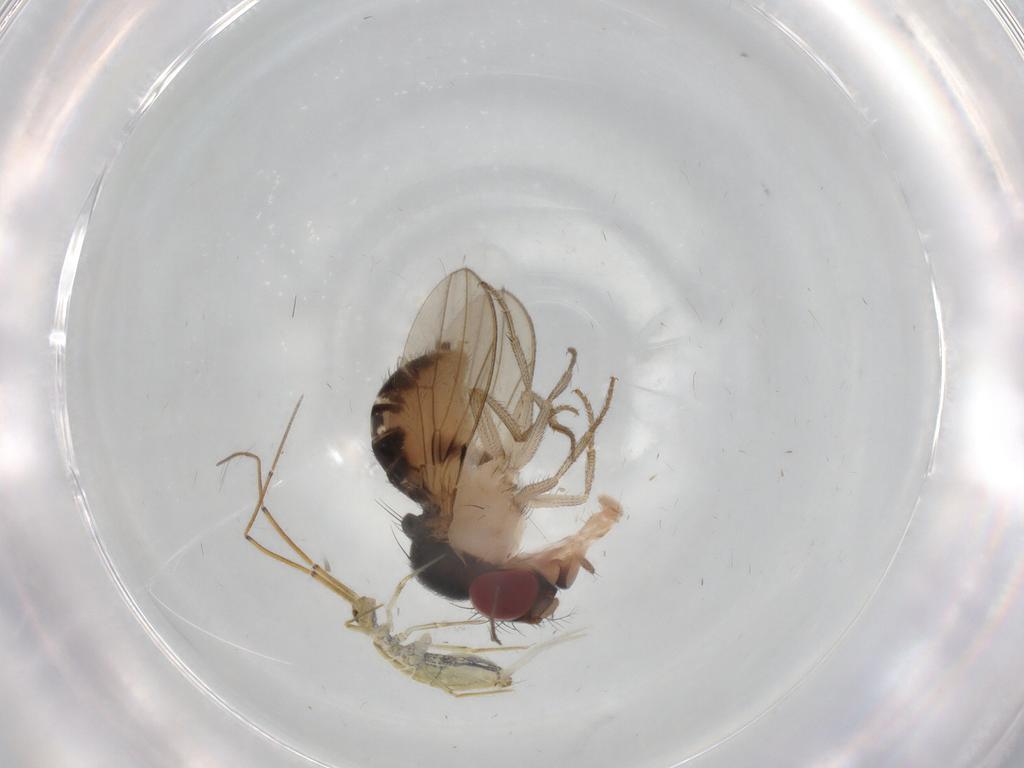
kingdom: Animalia
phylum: Arthropoda
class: Insecta
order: Diptera
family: Drosophilidae
